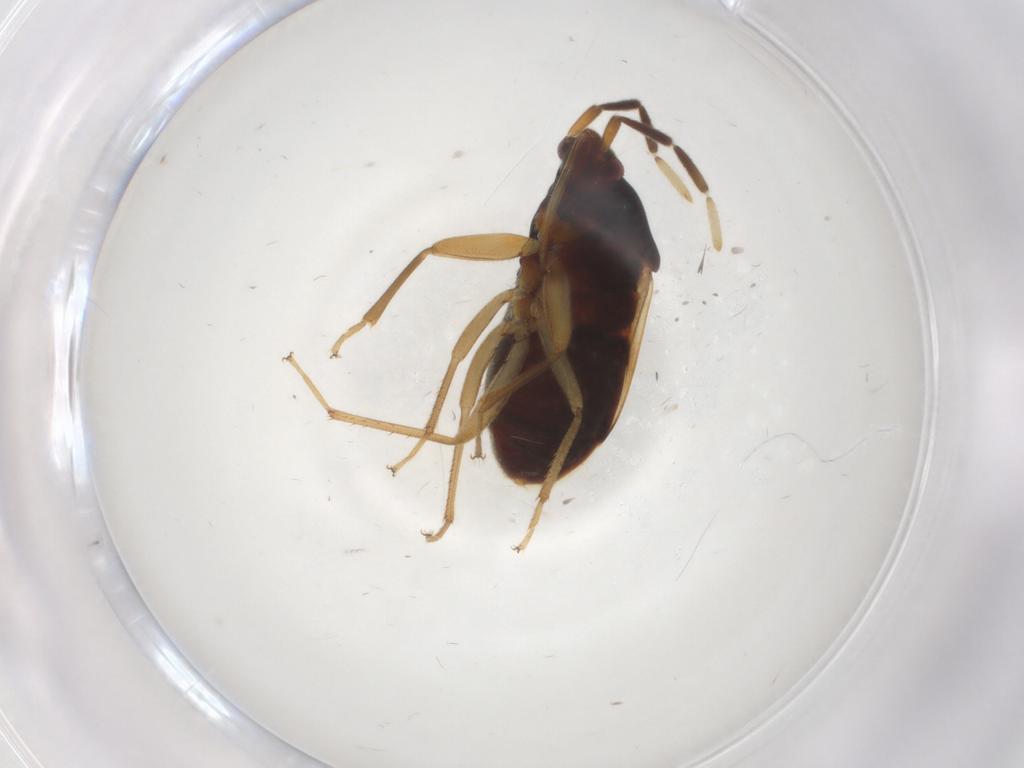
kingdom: Animalia
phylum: Arthropoda
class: Insecta
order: Hemiptera
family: Rhyparochromidae
